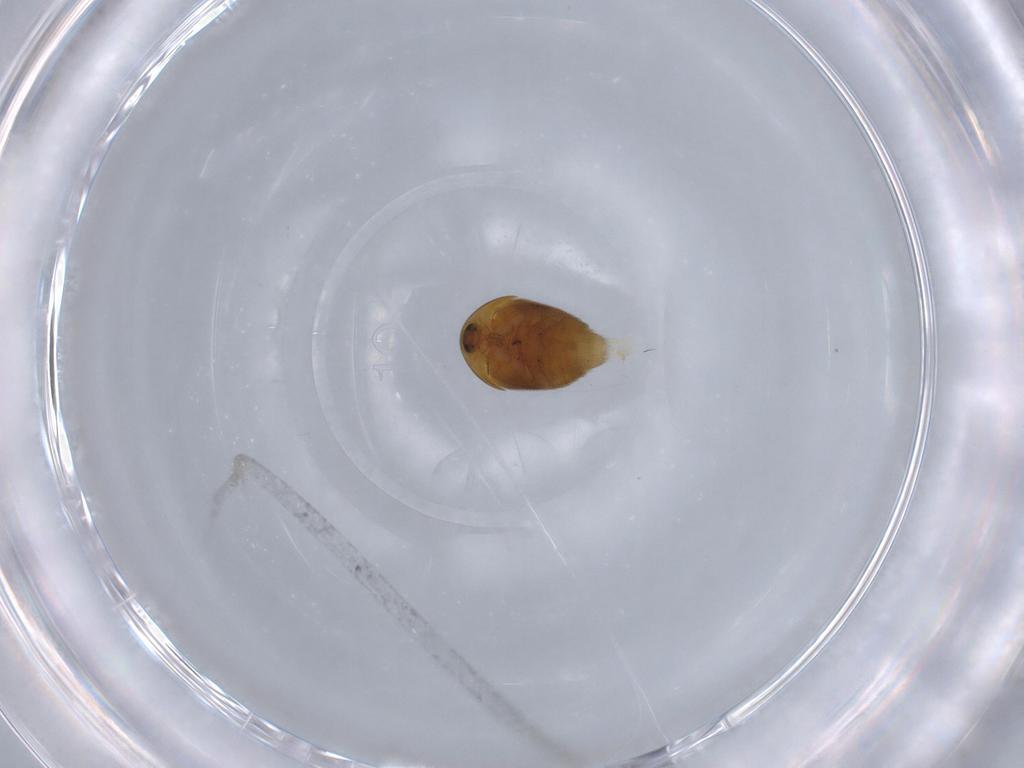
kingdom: Animalia
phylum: Arthropoda
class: Insecta
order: Coleoptera
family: Corylophidae
